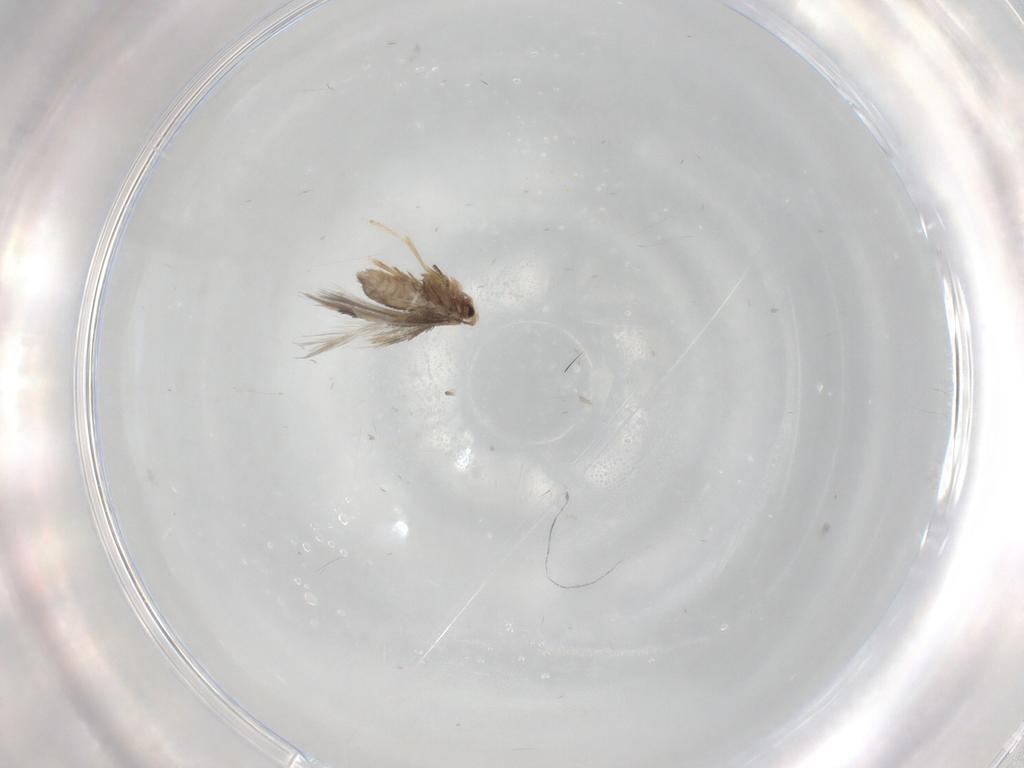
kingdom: Animalia
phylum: Arthropoda
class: Insecta
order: Lepidoptera
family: Nepticulidae
